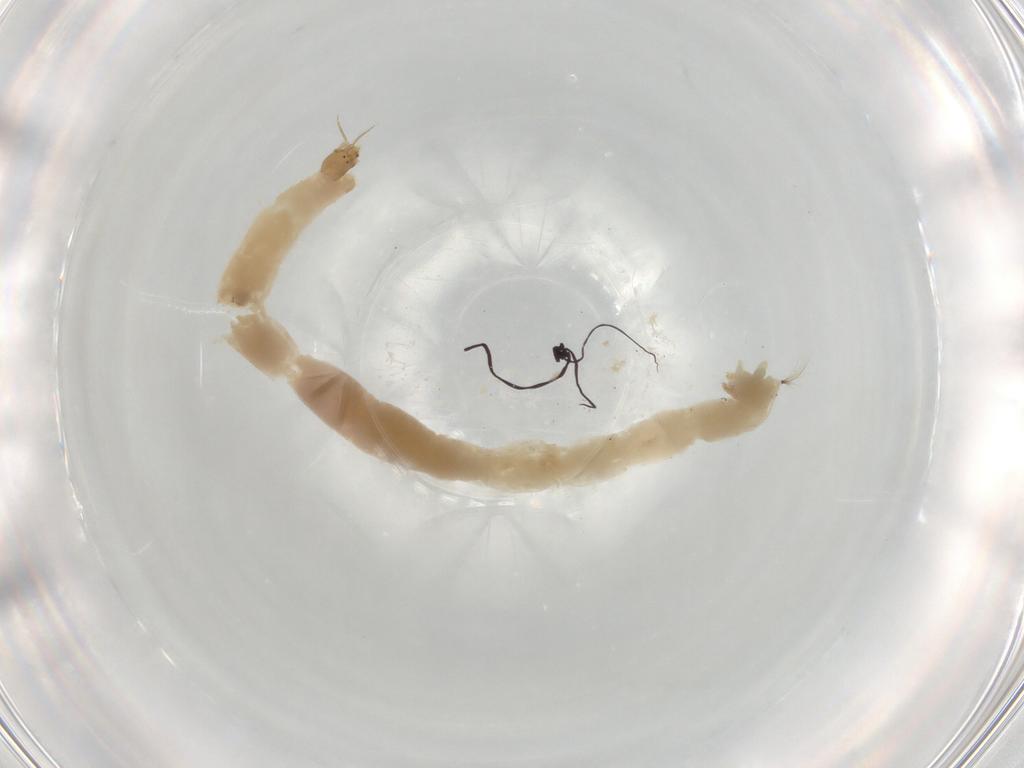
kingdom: Animalia
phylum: Arthropoda
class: Insecta
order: Diptera
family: Chironomidae
